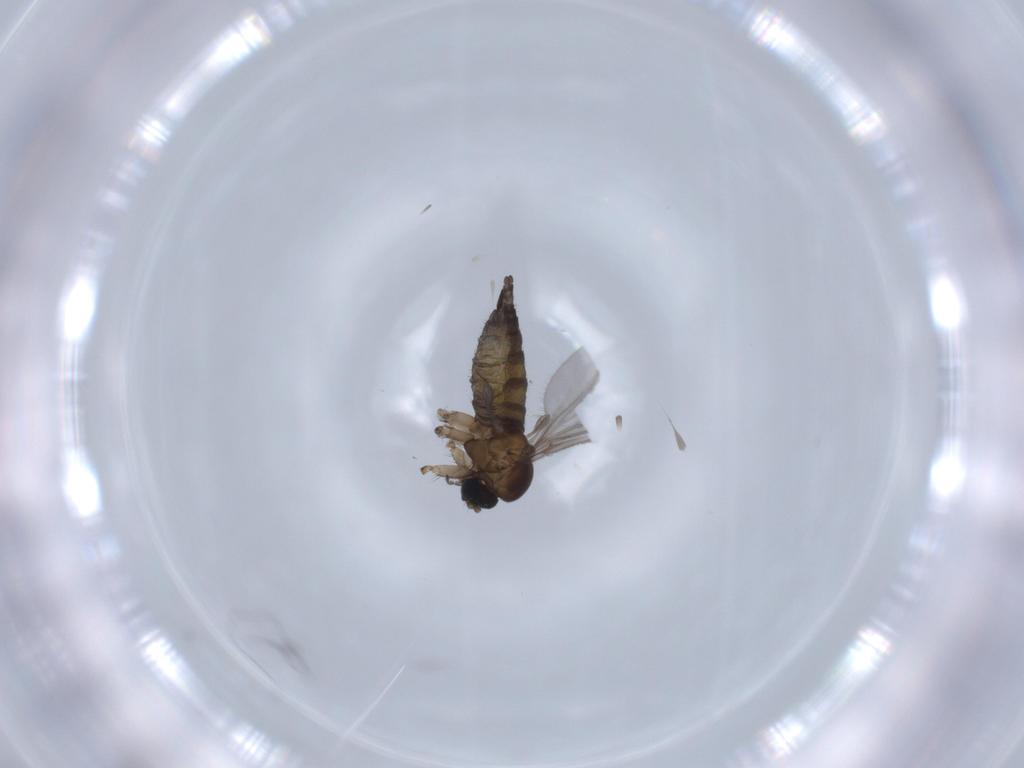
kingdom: Animalia
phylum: Arthropoda
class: Insecta
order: Diptera
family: Sciaridae
